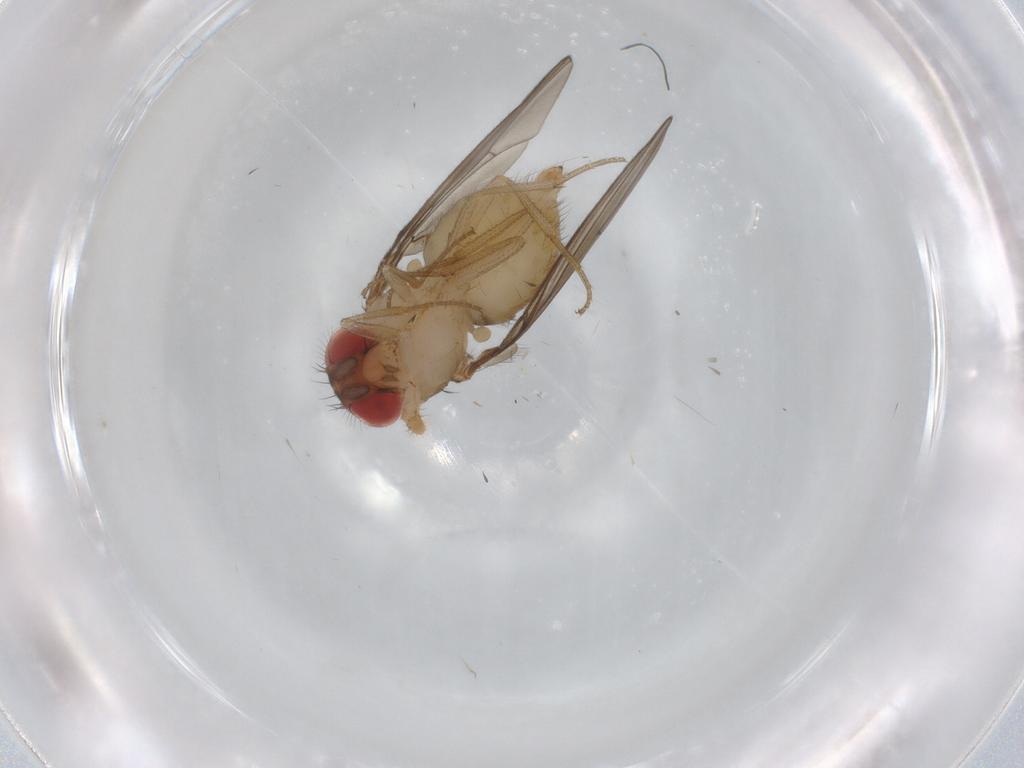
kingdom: Animalia
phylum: Arthropoda
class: Insecta
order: Diptera
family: Drosophilidae
